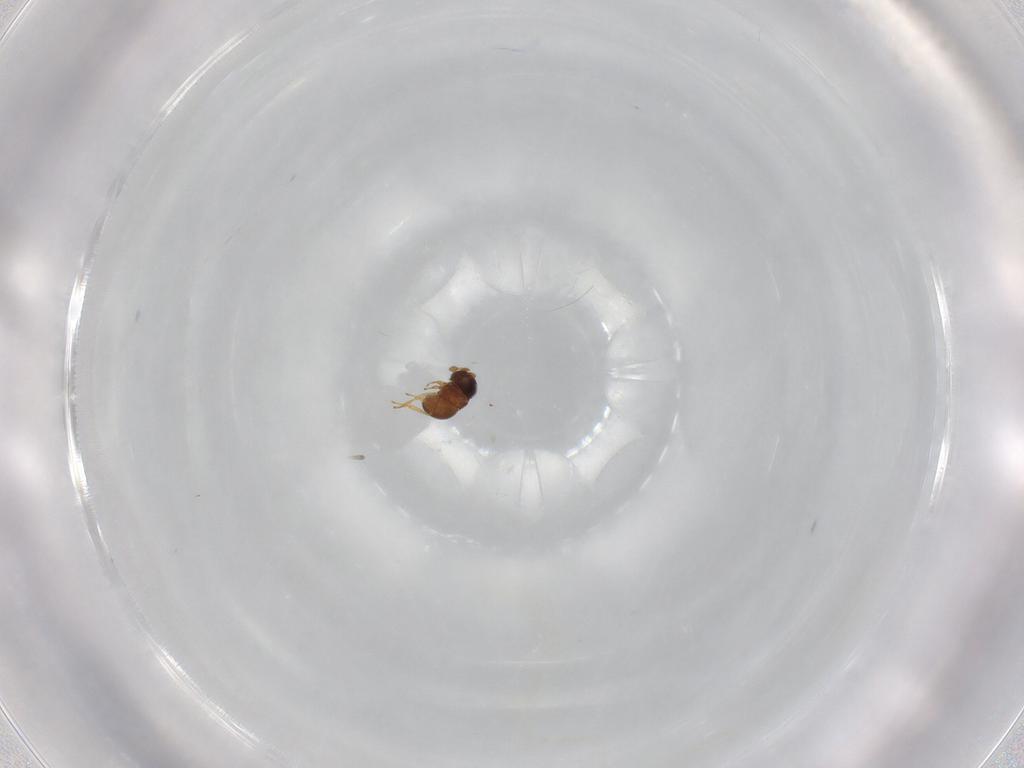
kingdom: Animalia
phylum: Arthropoda
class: Insecta
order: Hymenoptera
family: Scelionidae
